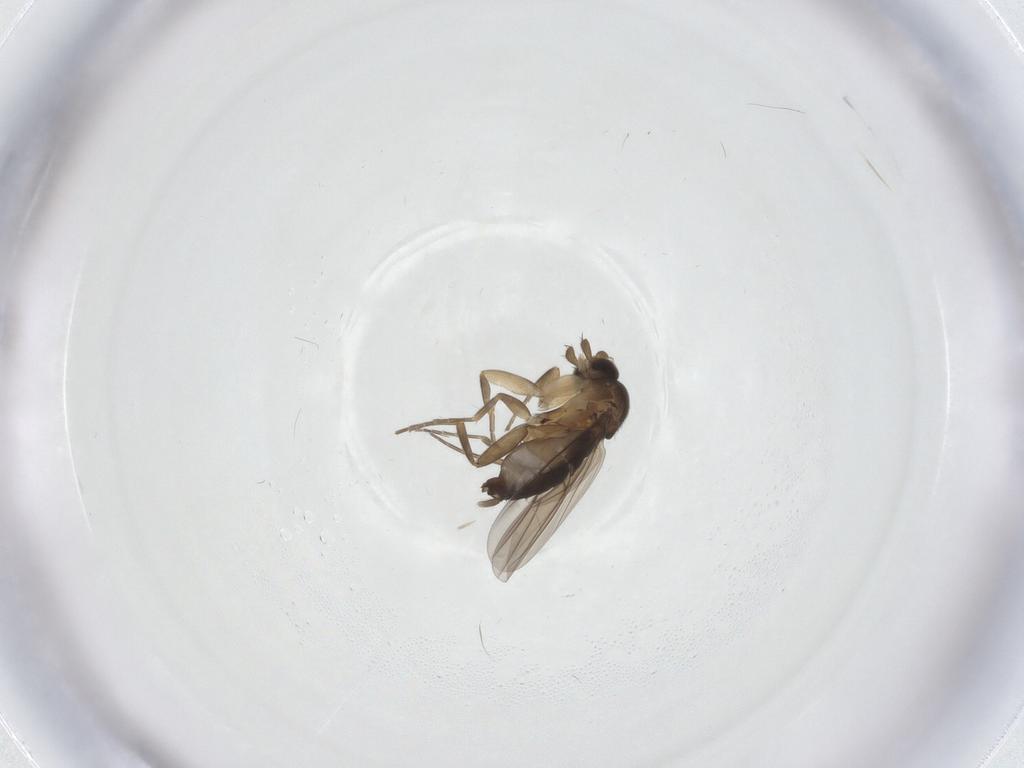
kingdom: Animalia
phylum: Arthropoda
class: Insecta
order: Diptera
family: Phoridae
